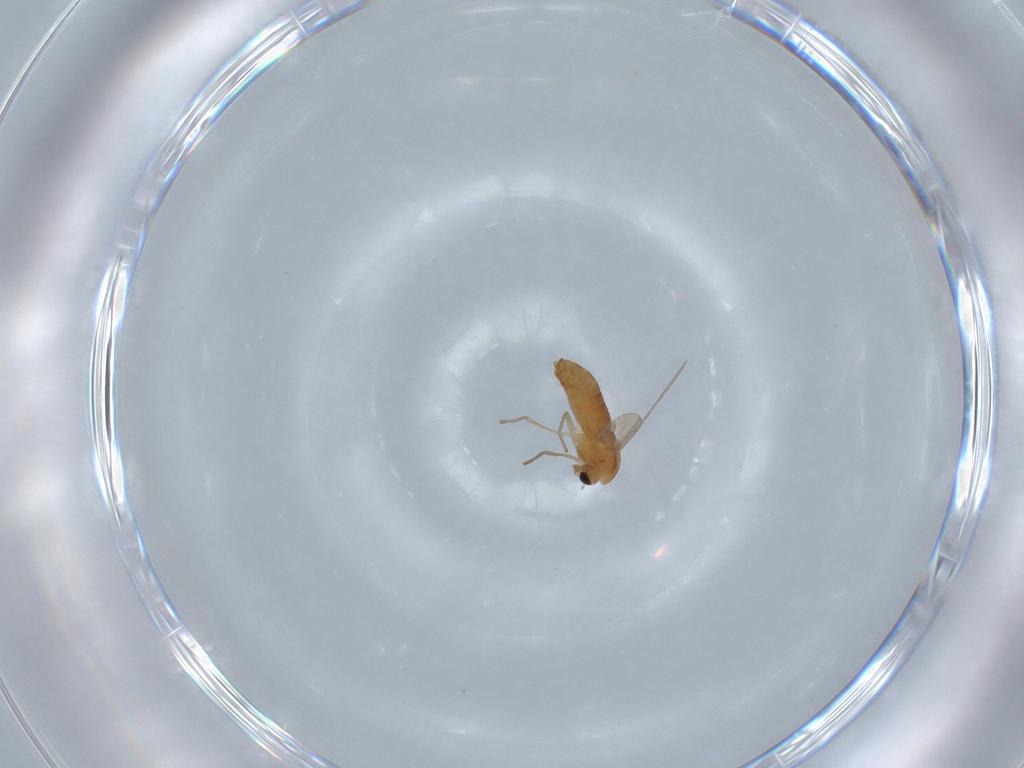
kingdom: Animalia
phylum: Arthropoda
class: Insecta
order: Diptera
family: Chironomidae
